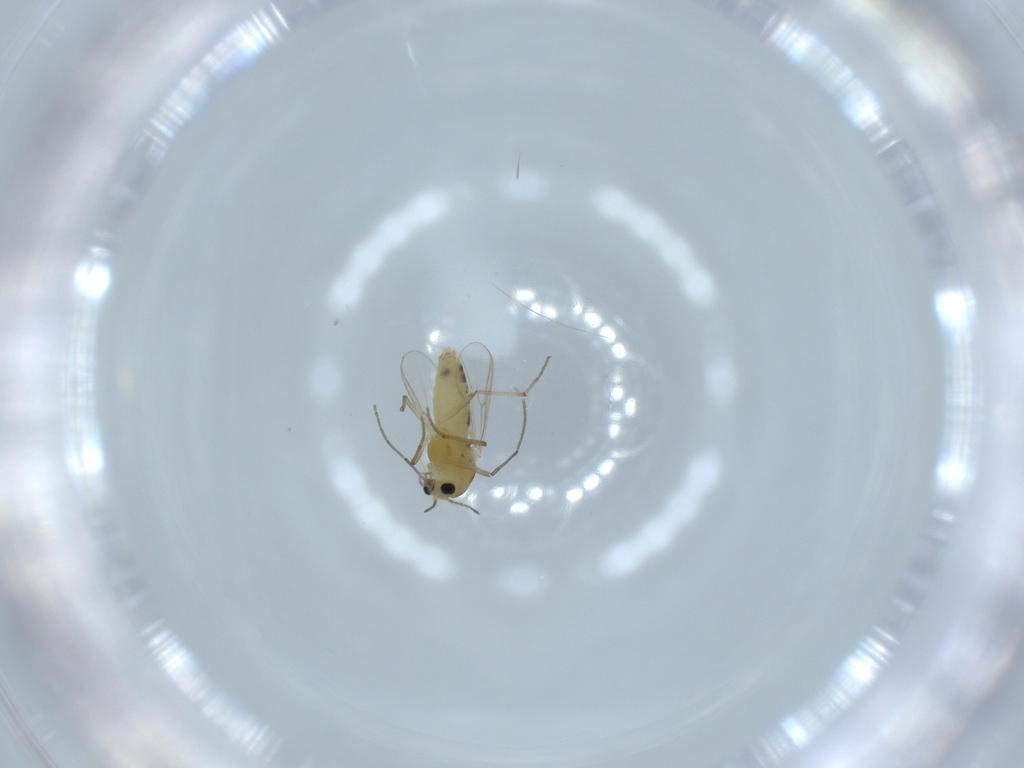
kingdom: Animalia
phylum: Arthropoda
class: Insecta
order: Diptera
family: Chironomidae
